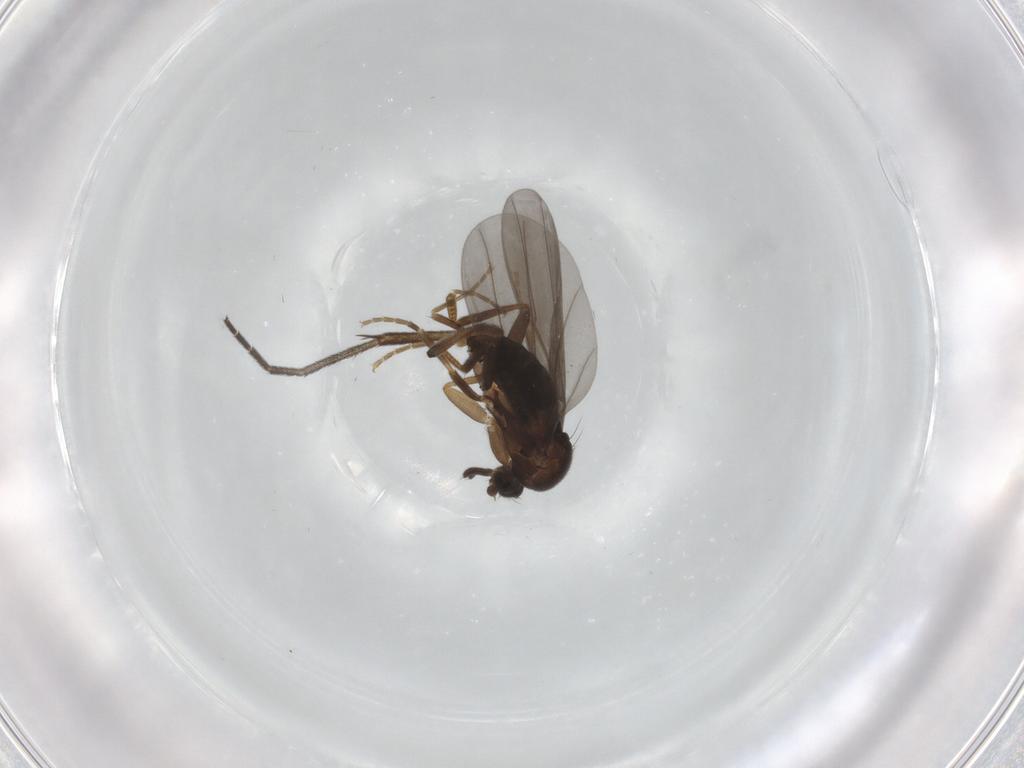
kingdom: Animalia
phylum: Arthropoda
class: Insecta
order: Diptera
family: Mycetophilidae
